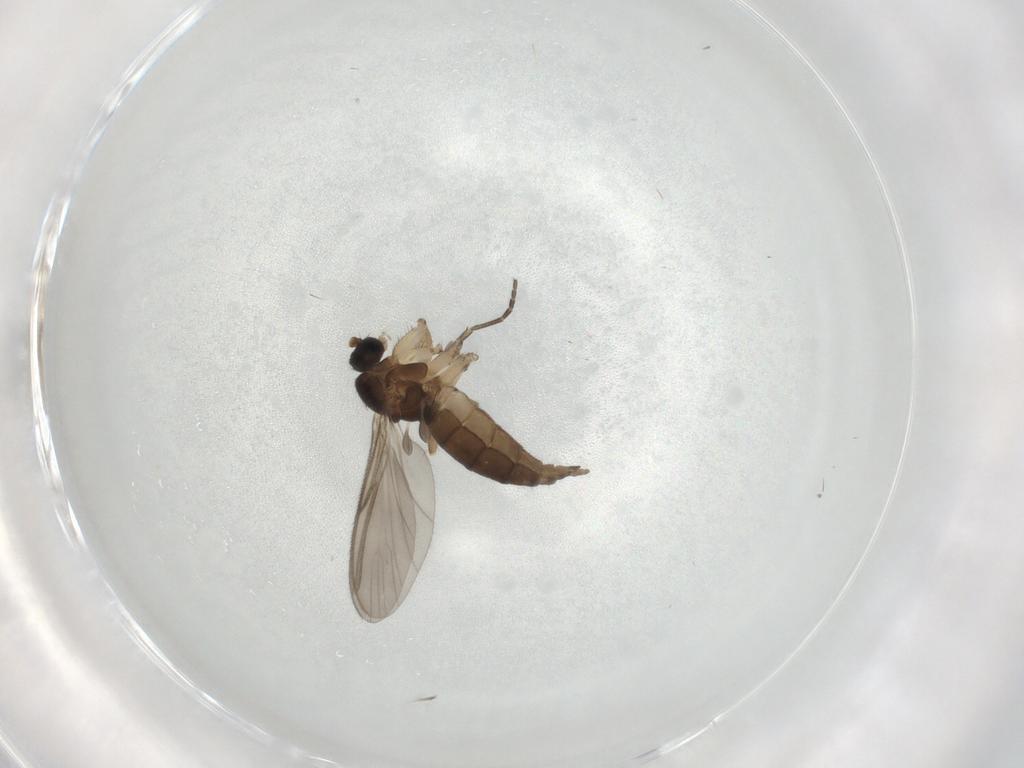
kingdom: Animalia
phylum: Arthropoda
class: Insecta
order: Diptera
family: Sciaridae
